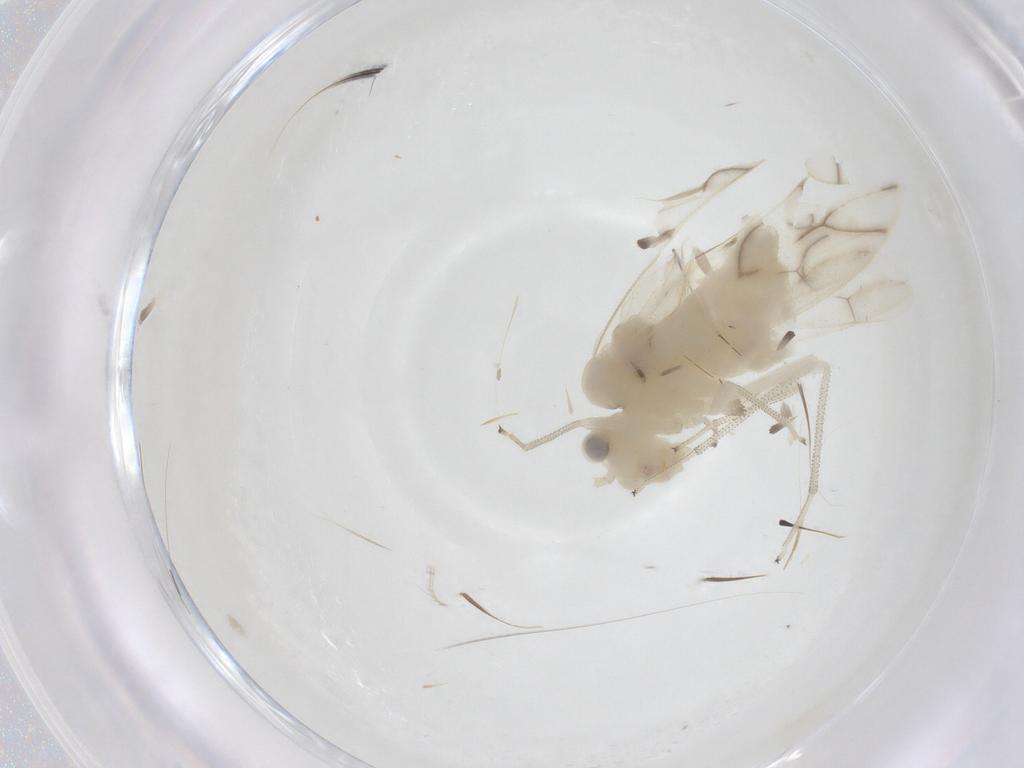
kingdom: Animalia
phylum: Arthropoda
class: Insecta
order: Psocodea
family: Caeciliusidae
